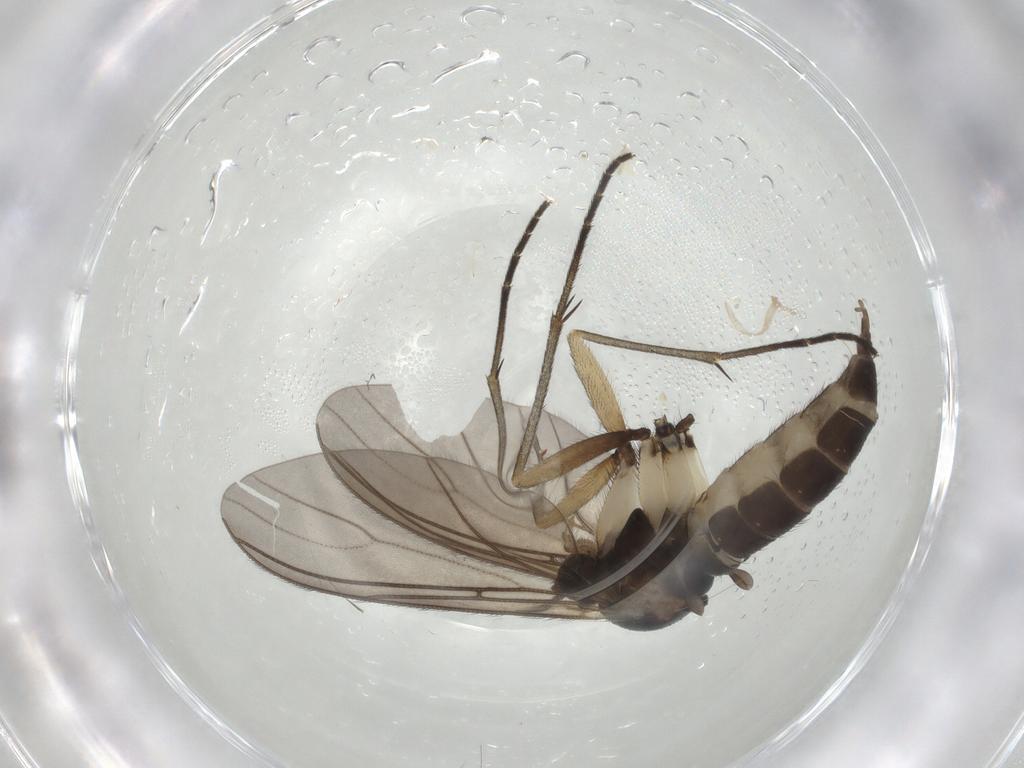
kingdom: Animalia
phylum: Arthropoda
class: Insecta
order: Diptera
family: Sciaridae
